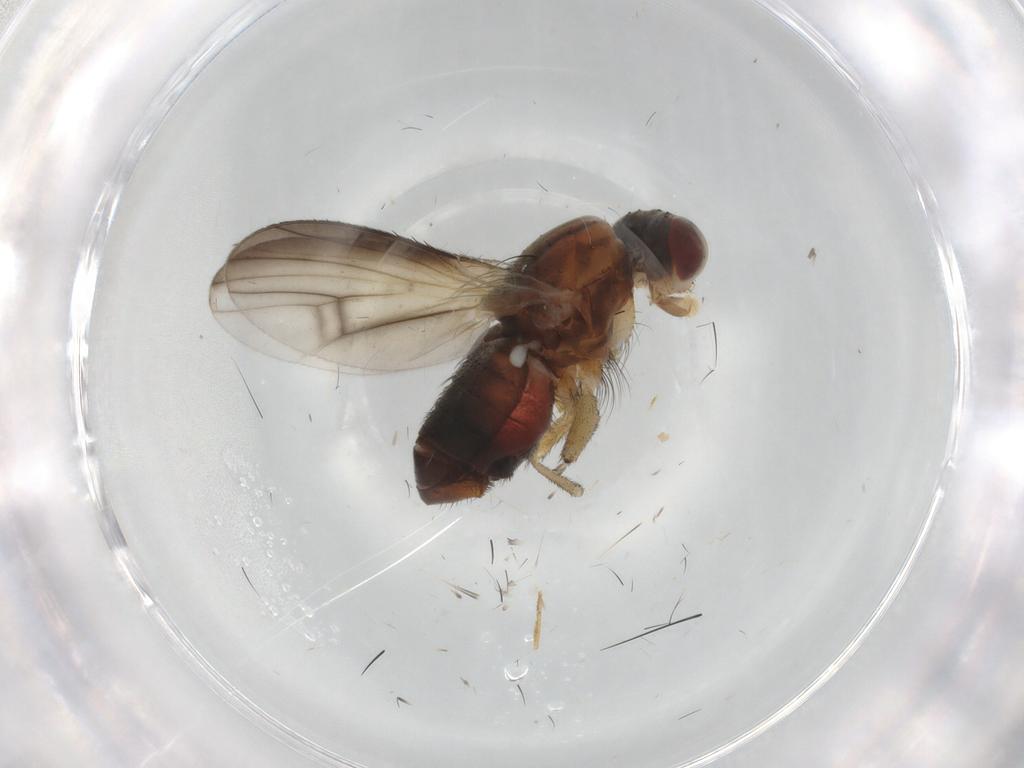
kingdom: Animalia
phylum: Arthropoda
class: Insecta
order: Diptera
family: Heleomyzidae
